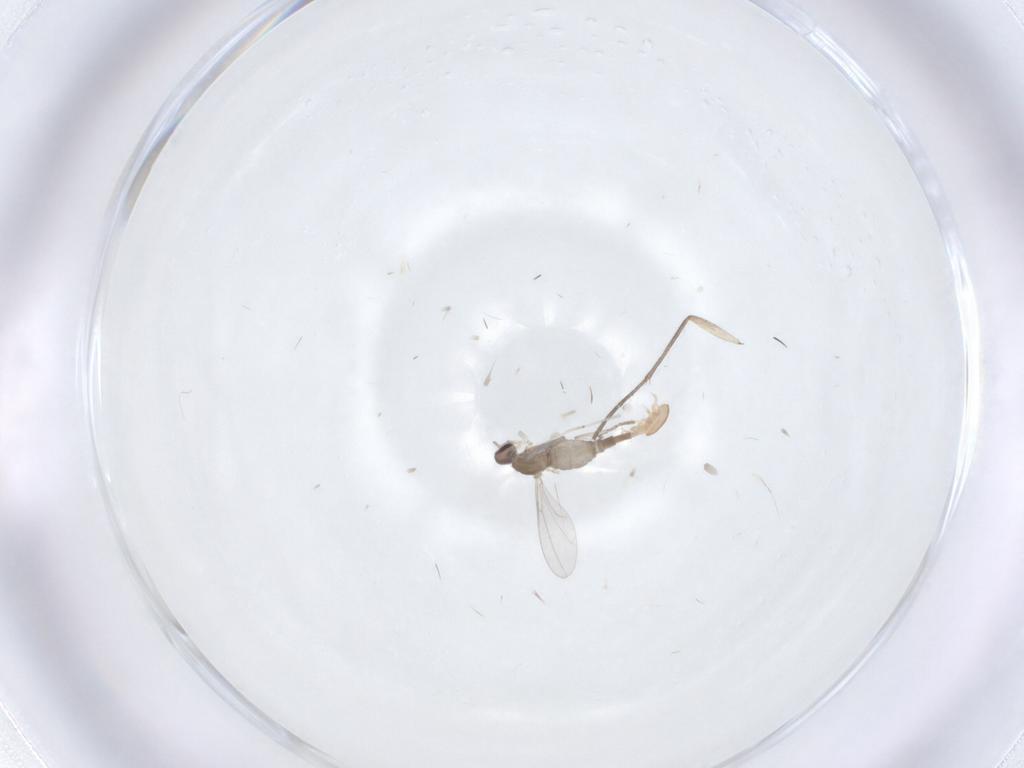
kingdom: Animalia
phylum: Arthropoda
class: Insecta
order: Diptera
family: Cecidomyiidae
